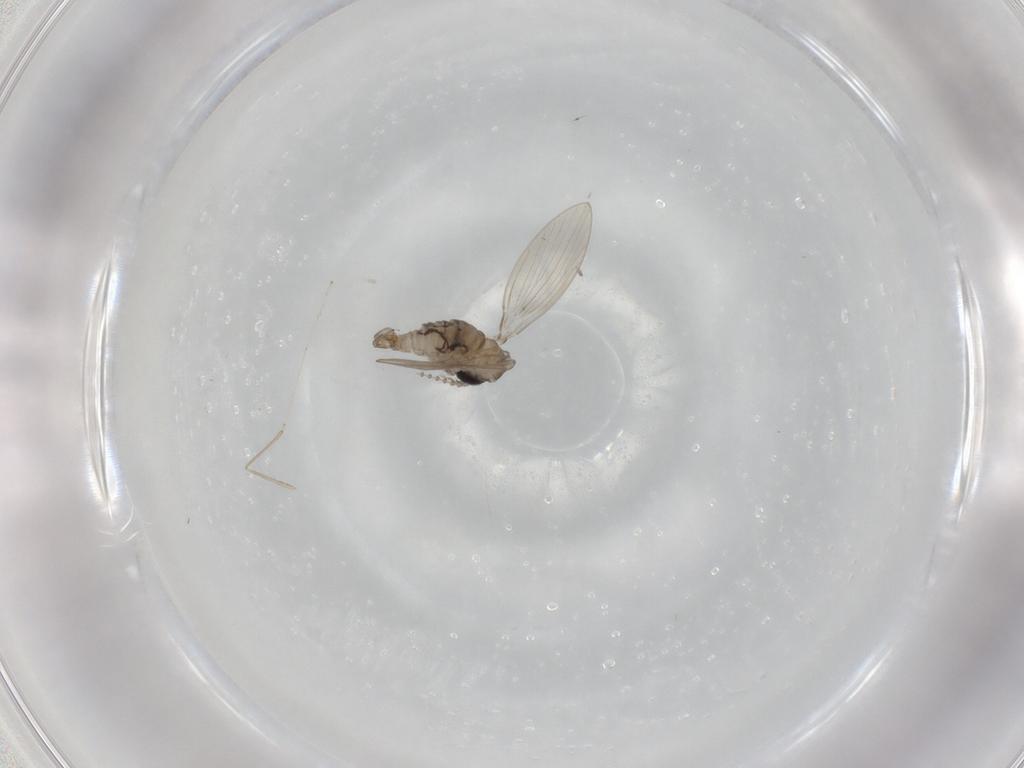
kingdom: Animalia
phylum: Arthropoda
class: Insecta
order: Diptera
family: Psychodidae
